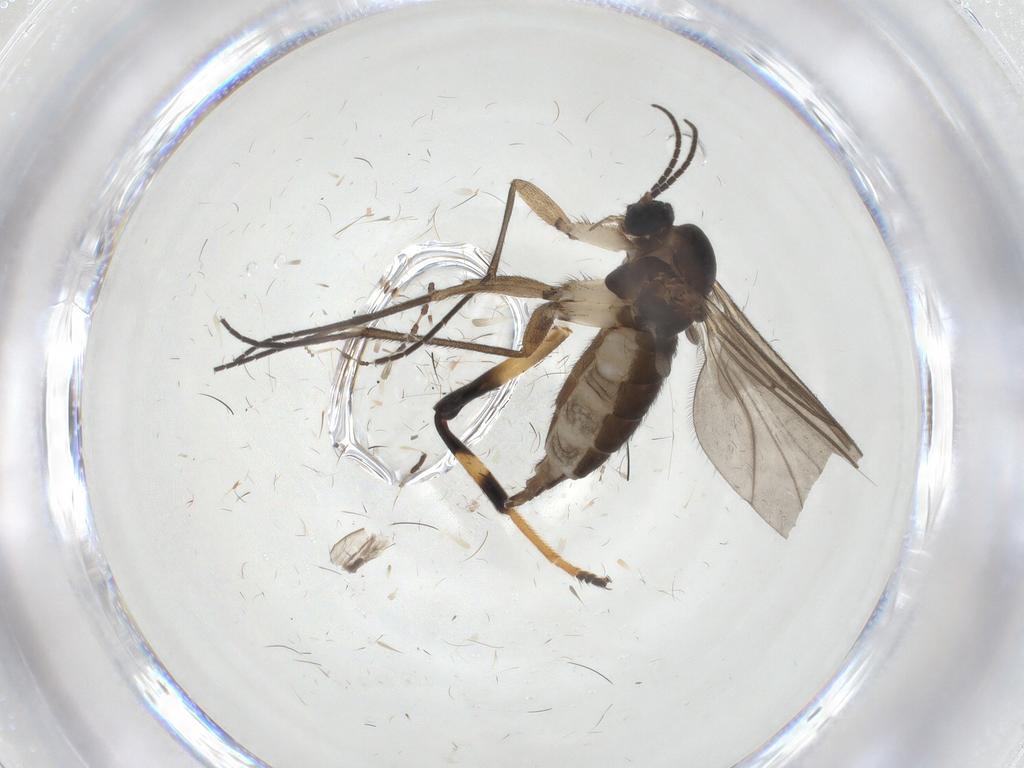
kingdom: Animalia
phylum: Arthropoda
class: Insecta
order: Diptera
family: Sciaridae
